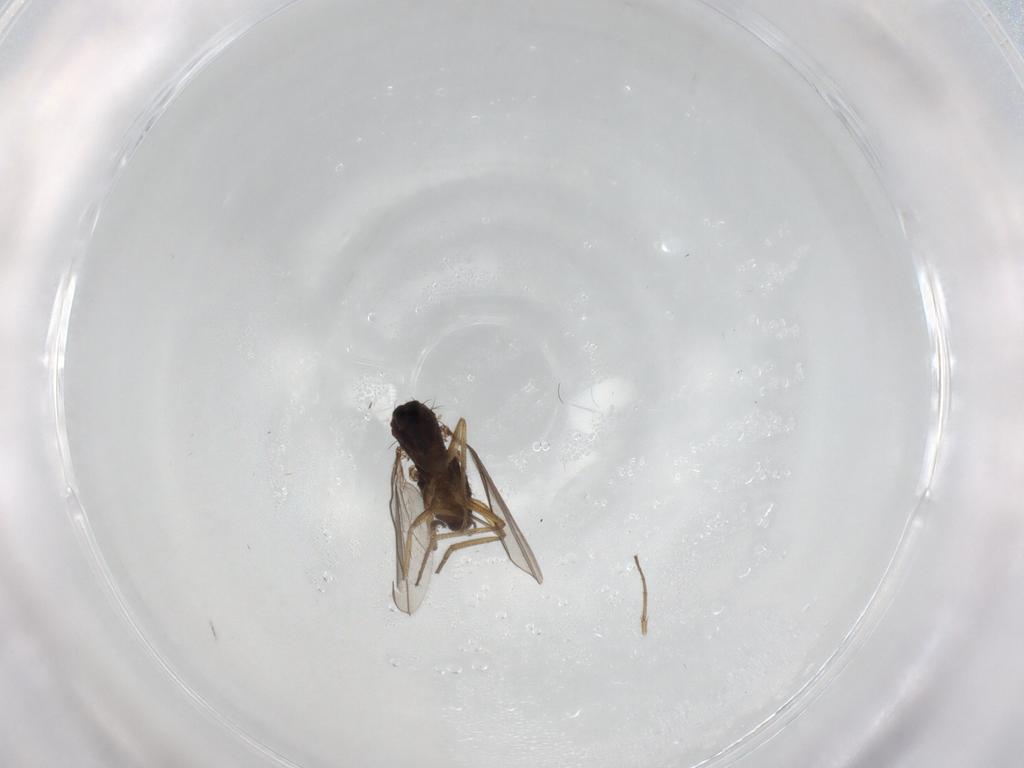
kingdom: Animalia
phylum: Arthropoda
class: Insecta
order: Diptera
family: Dolichopodidae
